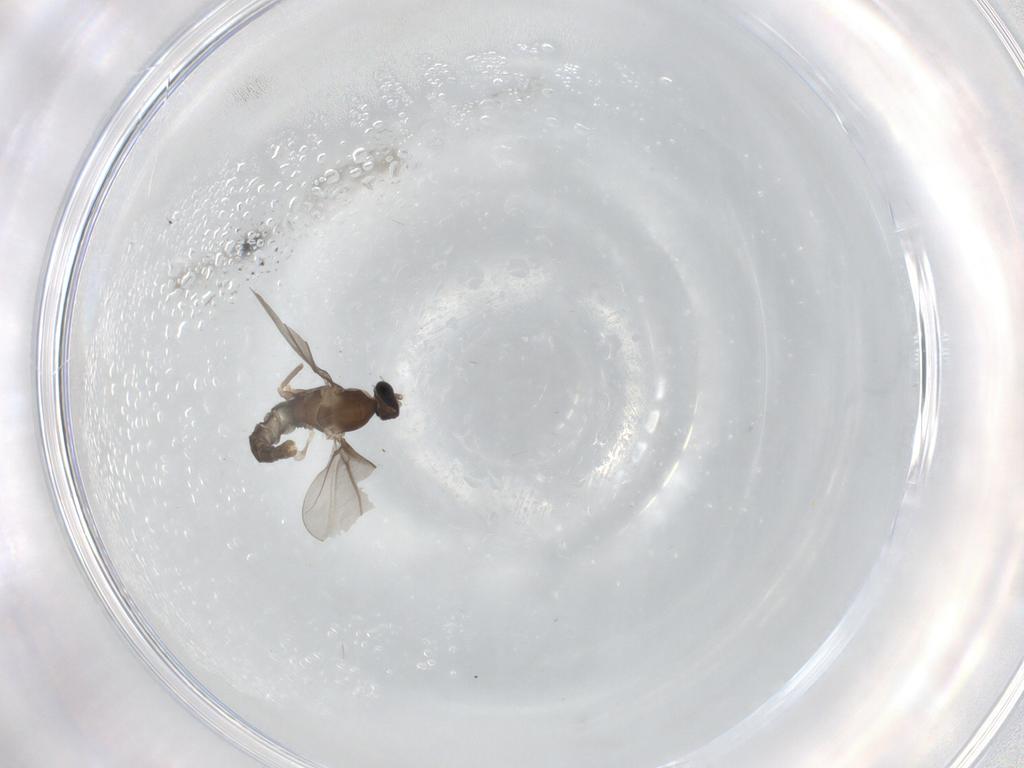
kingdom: Animalia
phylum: Arthropoda
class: Insecta
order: Diptera
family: Cecidomyiidae
